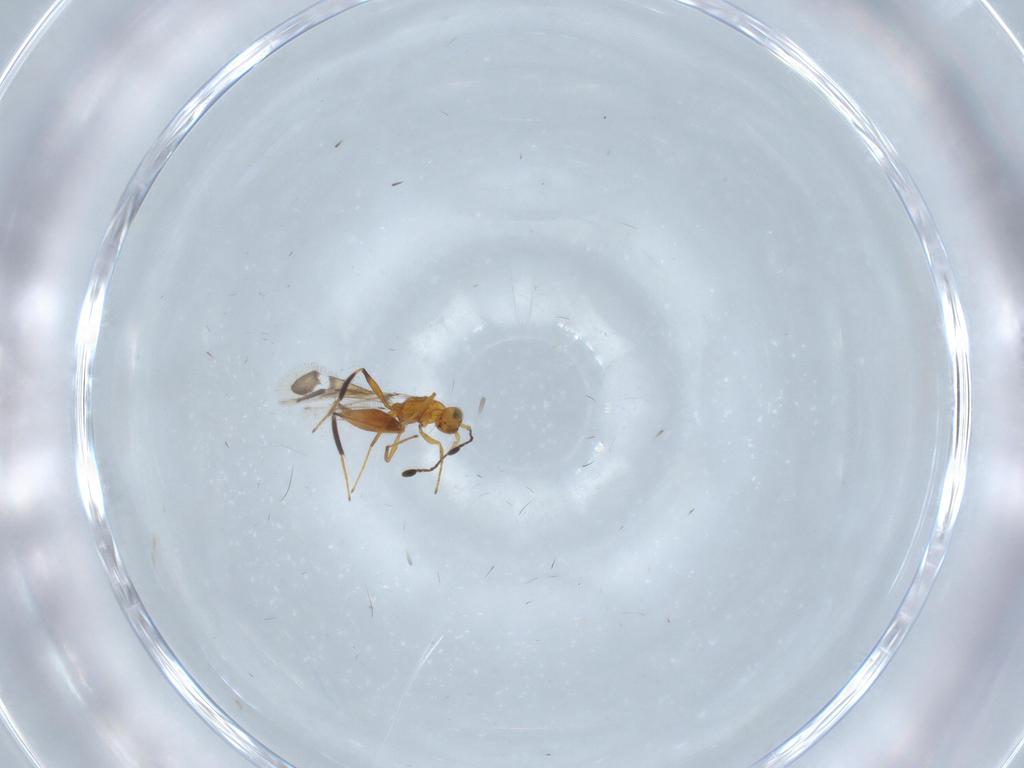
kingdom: Animalia
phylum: Arthropoda
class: Insecta
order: Hymenoptera
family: Mymaridae
